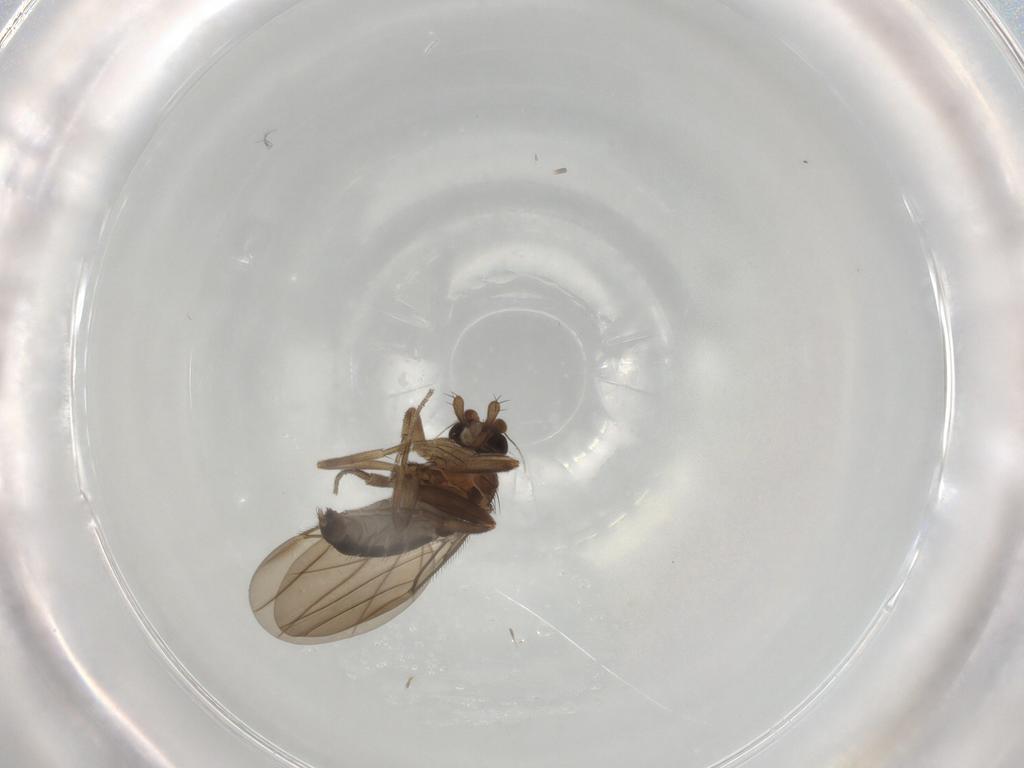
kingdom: Animalia
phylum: Arthropoda
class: Insecta
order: Diptera
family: Phoridae
